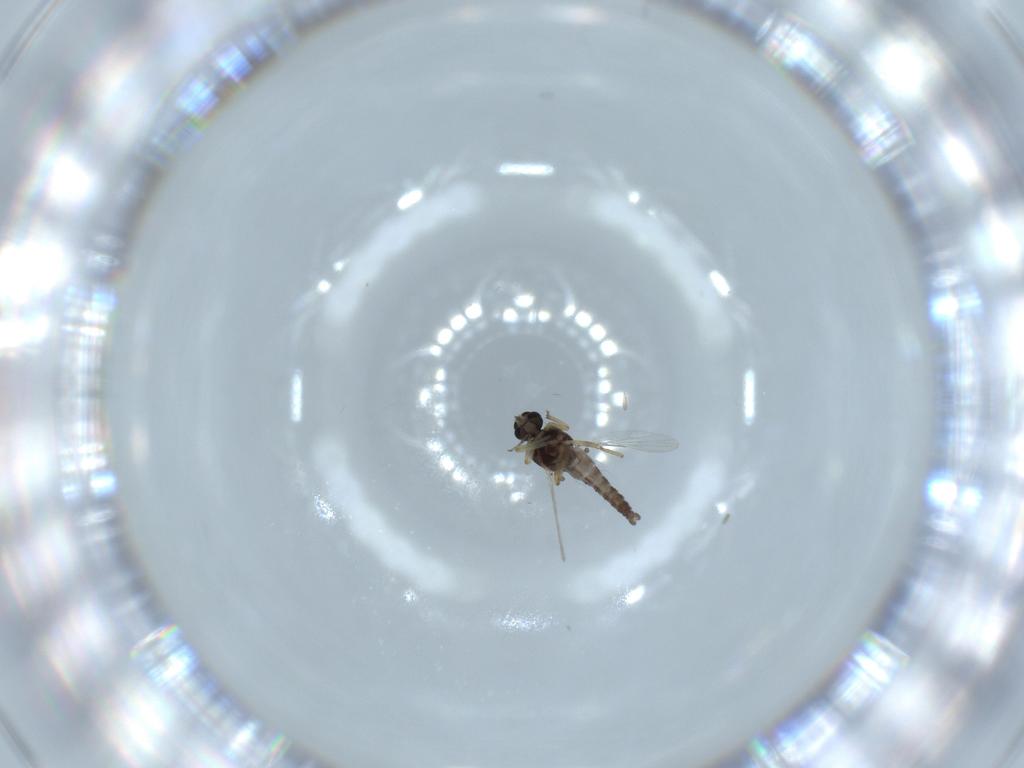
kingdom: Animalia
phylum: Arthropoda
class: Insecta
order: Diptera
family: Ceratopogonidae
